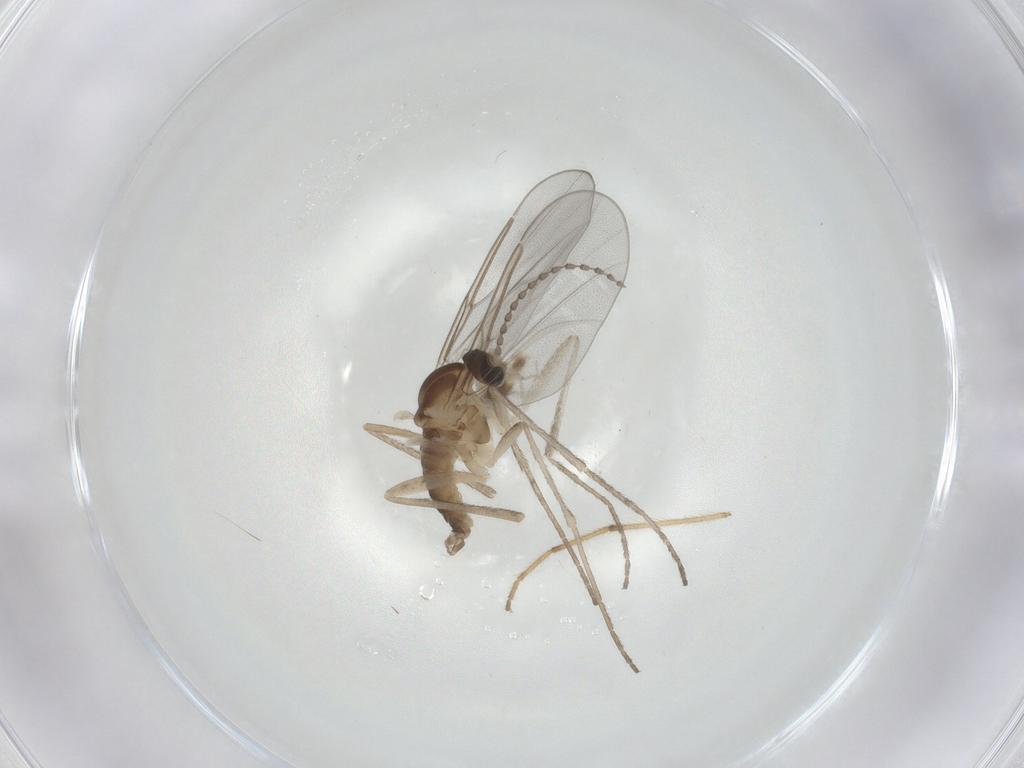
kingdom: Animalia
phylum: Arthropoda
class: Insecta
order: Diptera
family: Cecidomyiidae
